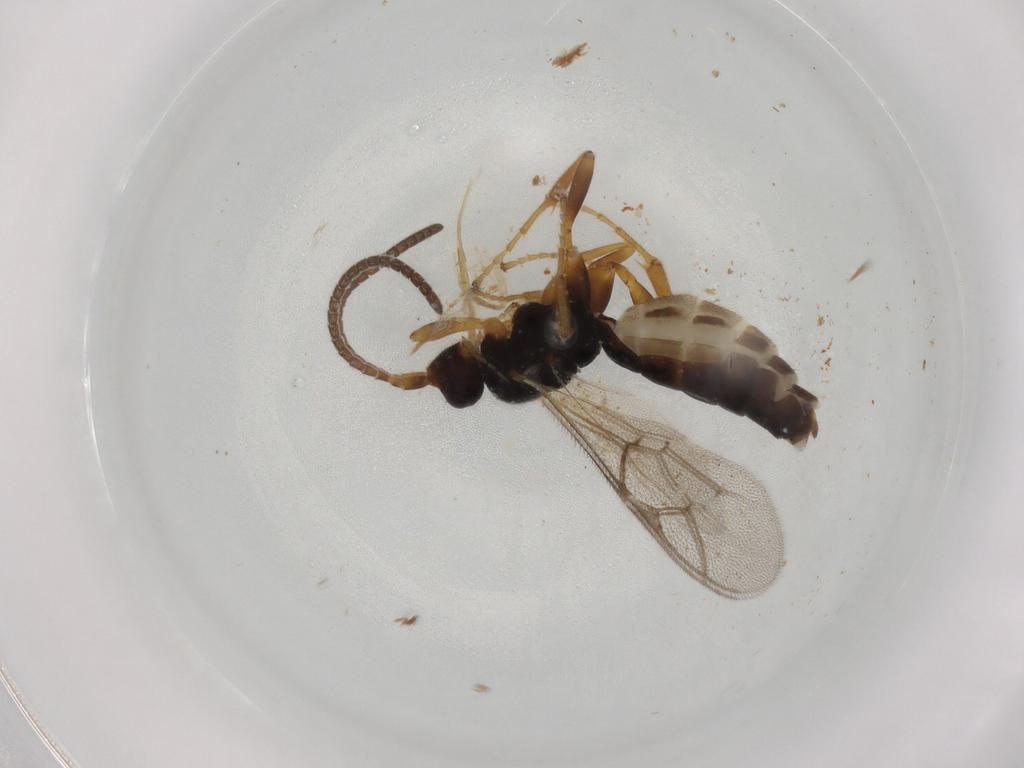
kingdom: Animalia
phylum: Arthropoda
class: Insecta
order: Hymenoptera
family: Ichneumonidae
